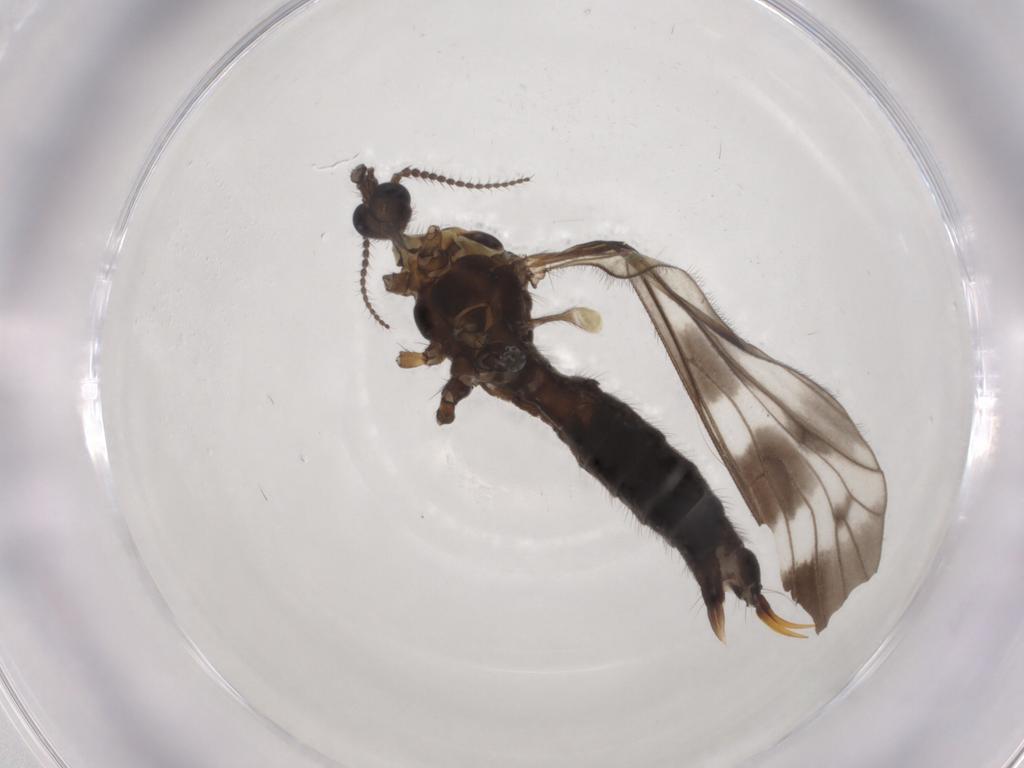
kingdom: Animalia
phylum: Arthropoda
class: Insecta
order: Diptera
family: Limoniidae
